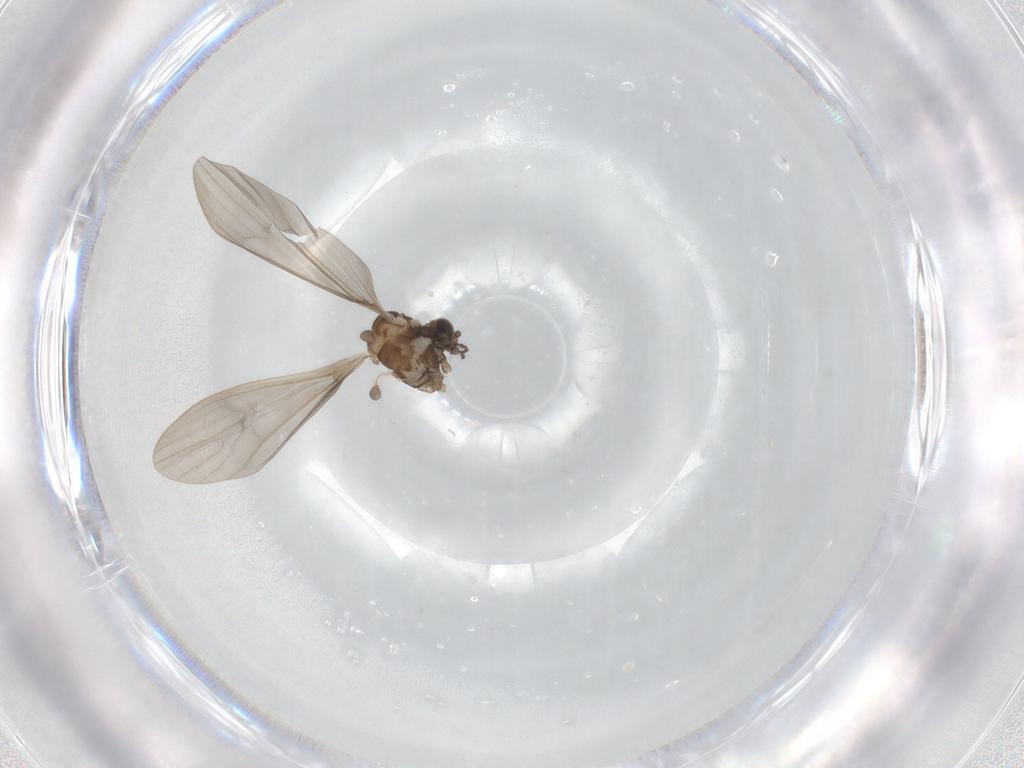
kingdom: Animalia
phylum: Arthropoda
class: Insecta
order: Diptera
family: Limoniidae
